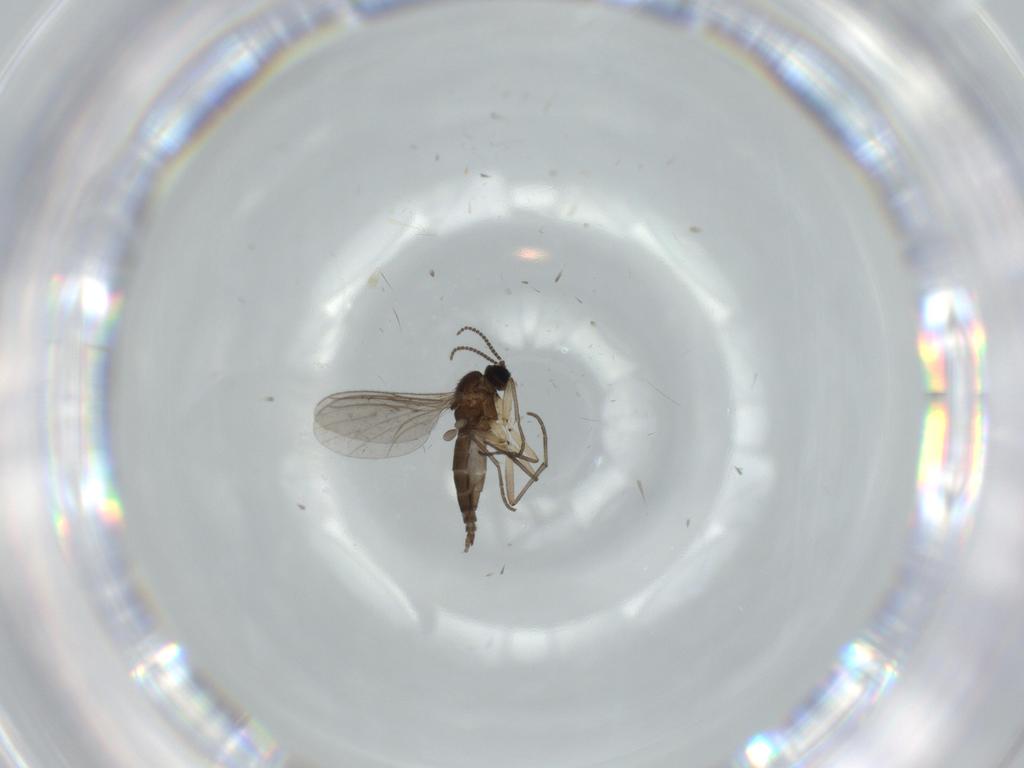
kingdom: Animalia
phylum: Arthropoda
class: Insecta
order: Diptera
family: Sciaridae
